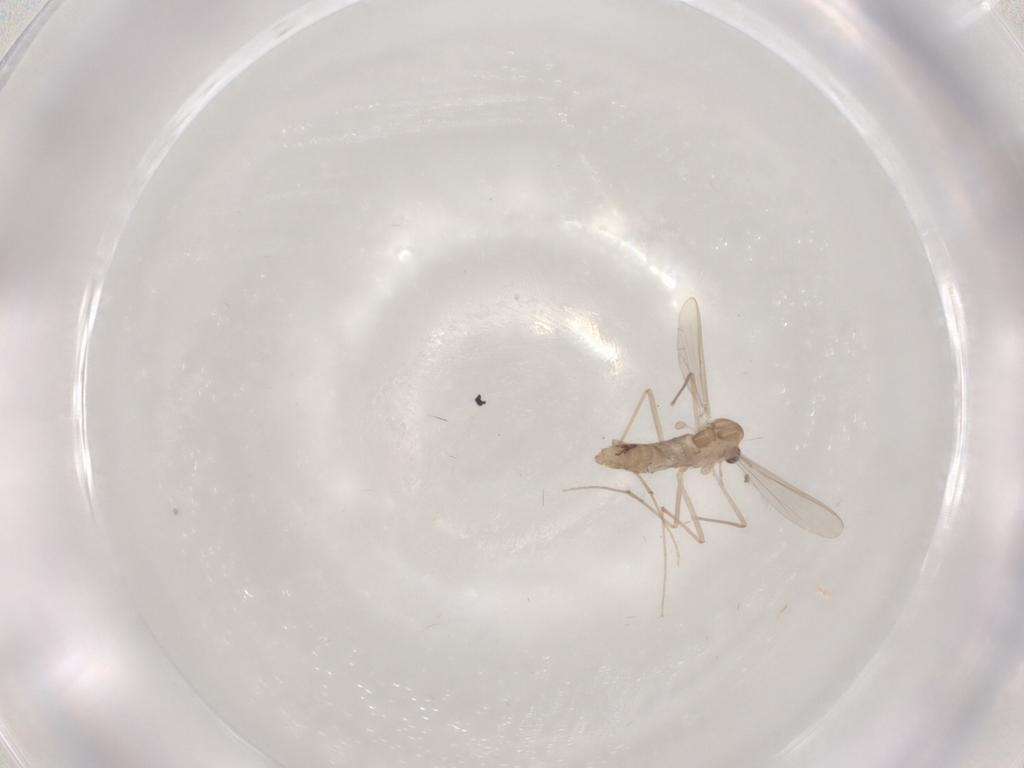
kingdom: Animalia
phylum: Arthropoda
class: Insecta
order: Diptera
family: Chironomidae
